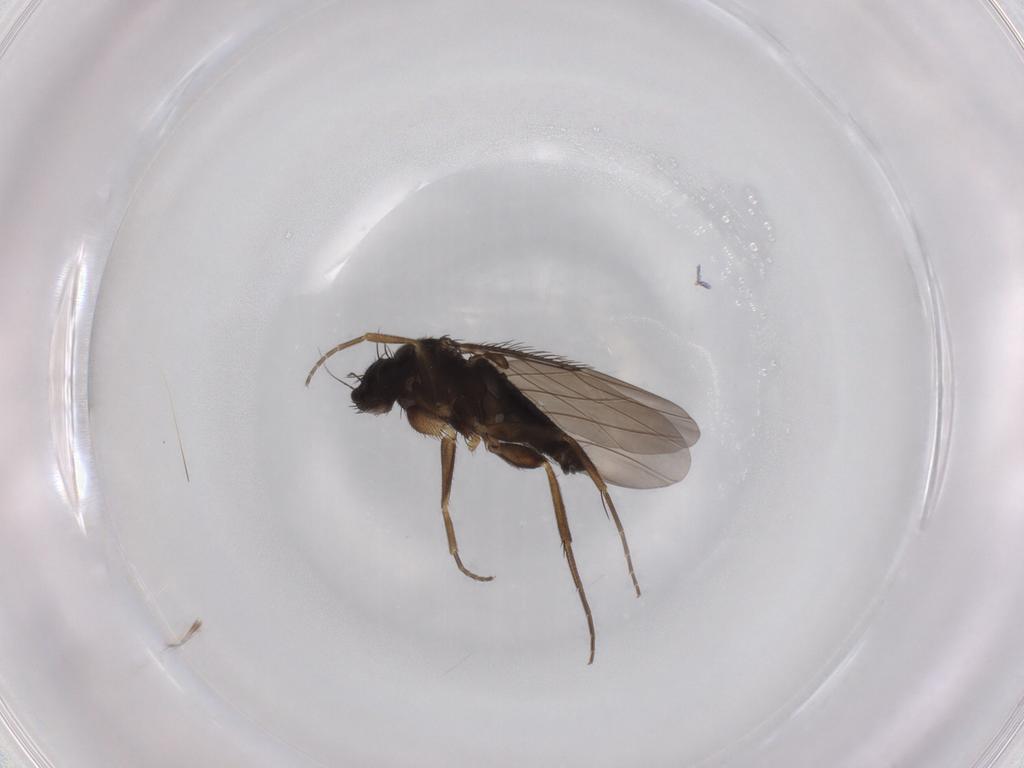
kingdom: Animalia
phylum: Arthropoda
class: Insecta
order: Diptera
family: Phoridae
